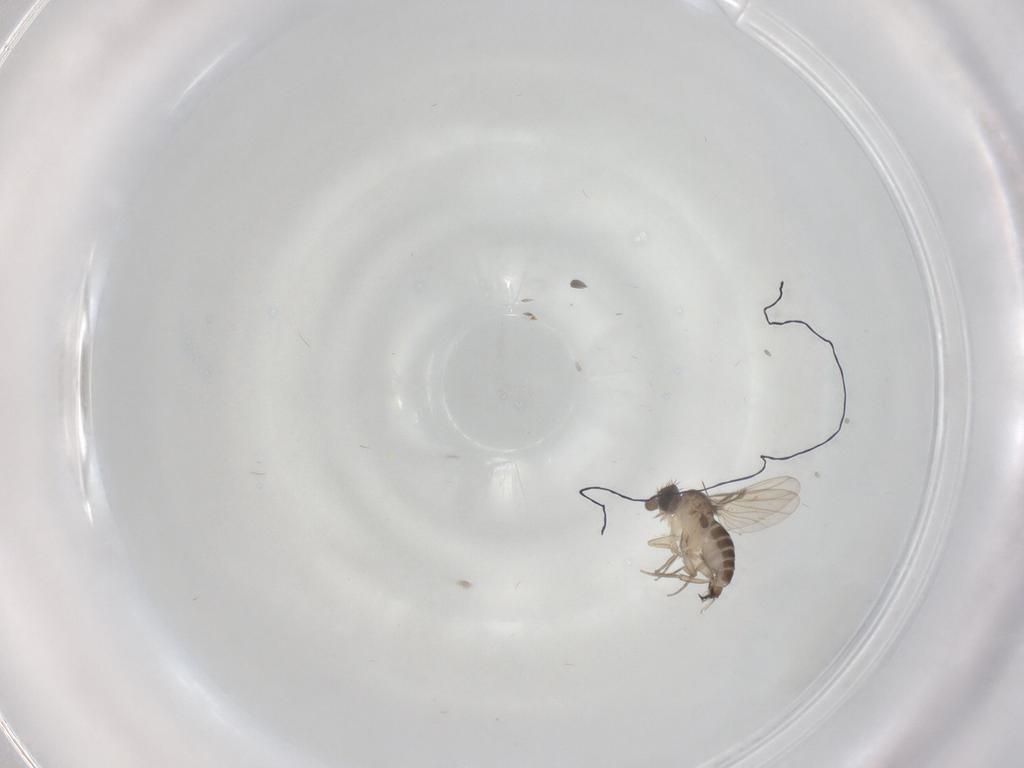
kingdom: Animalia
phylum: Arthropoda
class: Insecta
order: Diptera
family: Phoridae
